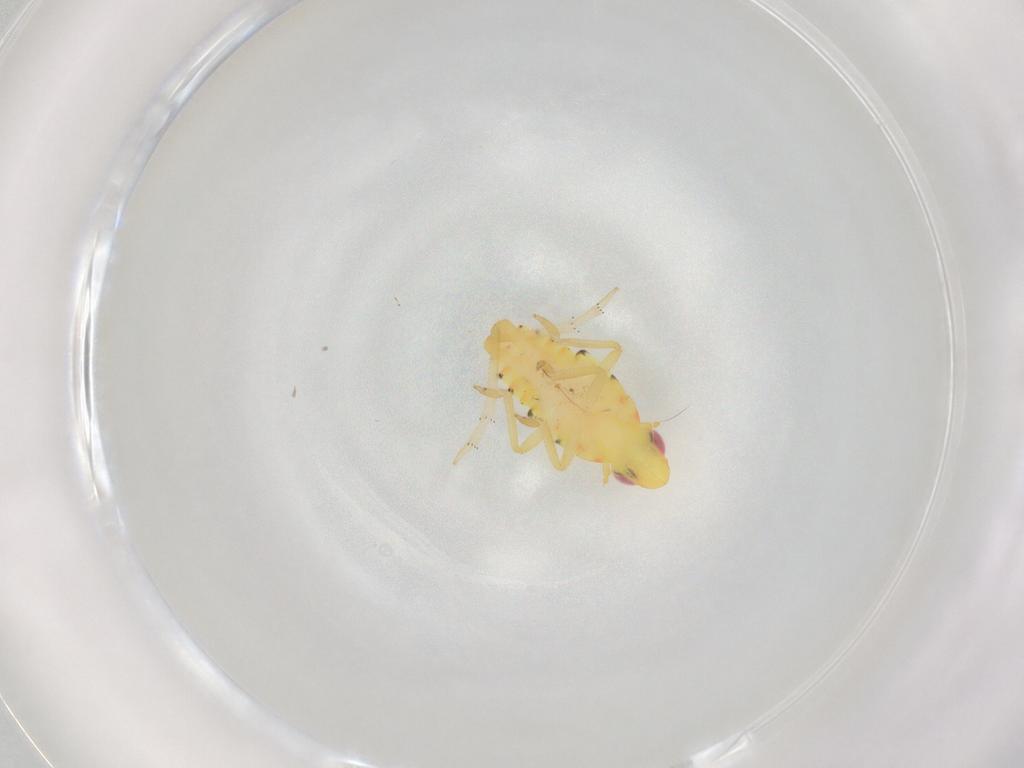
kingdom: Animalia
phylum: Arthropoda
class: Insecta
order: Hemiptera
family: Tropiduchidae
